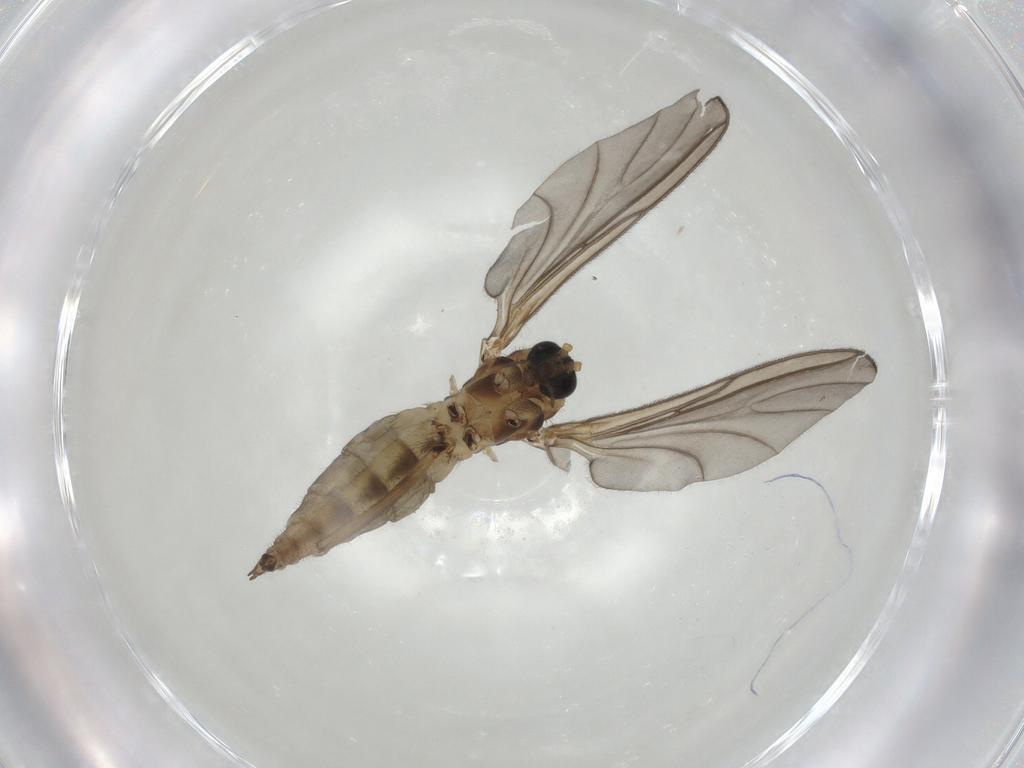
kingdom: Animalia
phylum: Arthropoda
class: Insecta
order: Diptera
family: Sciaridae
